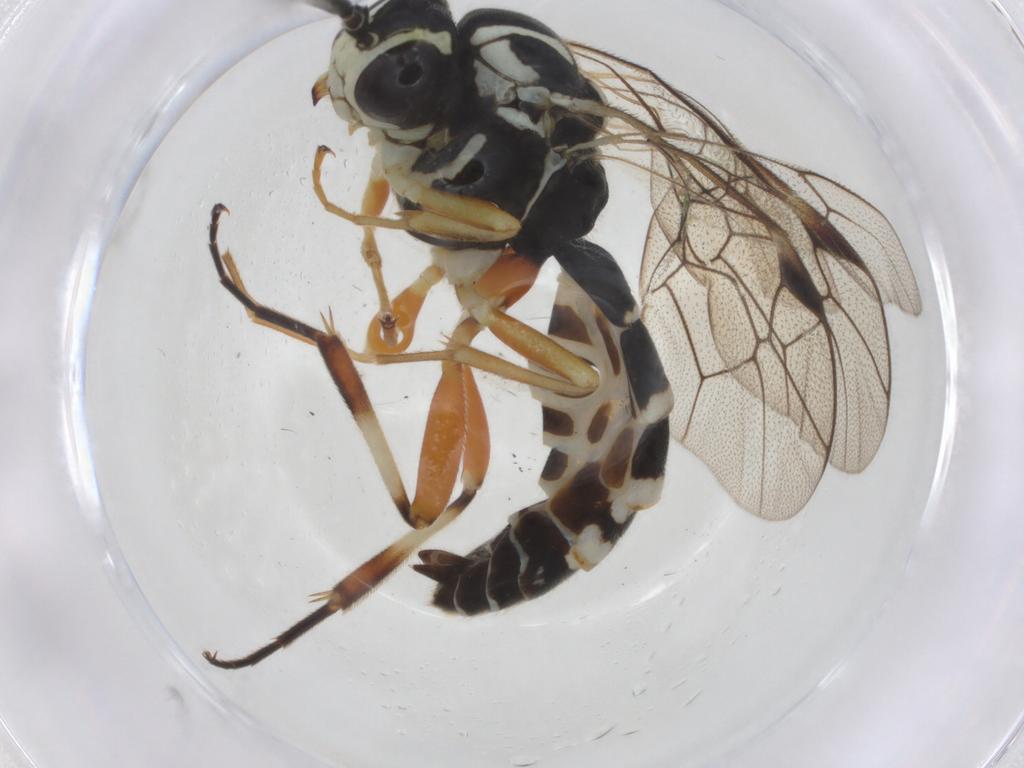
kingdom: Animalia
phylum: Arthropoda
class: Insecta
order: Hymenoptera
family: Ichneumonidae
